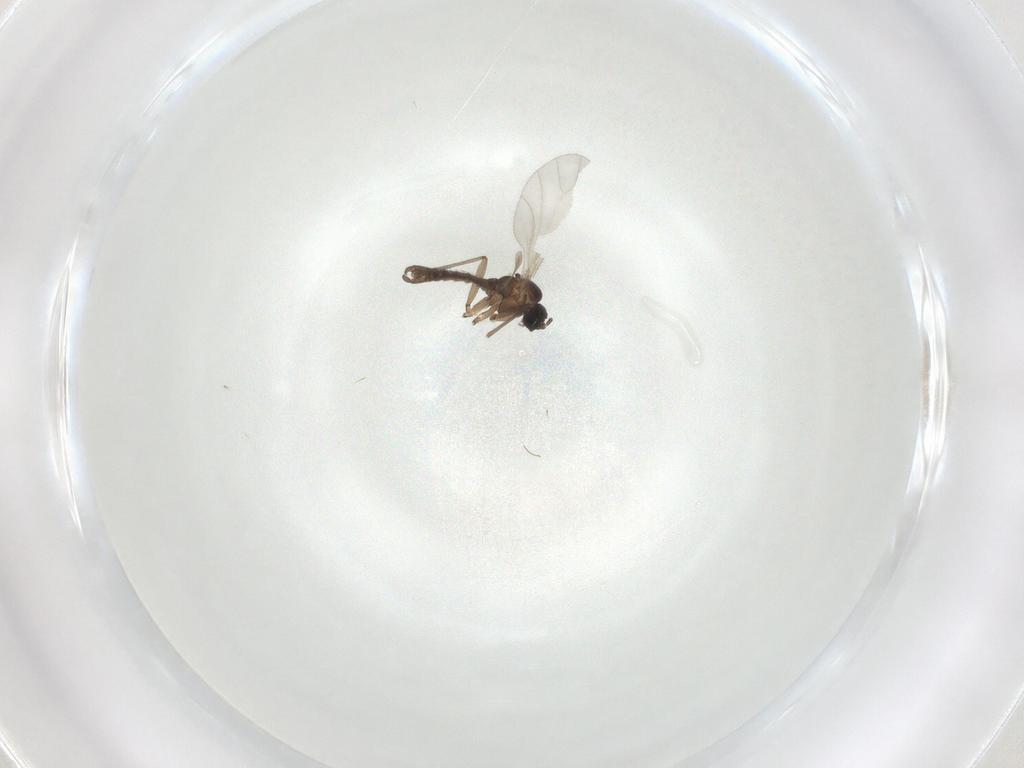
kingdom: Animalia
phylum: Arthropoda
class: Insecta
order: Diptera
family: Sciaridae
